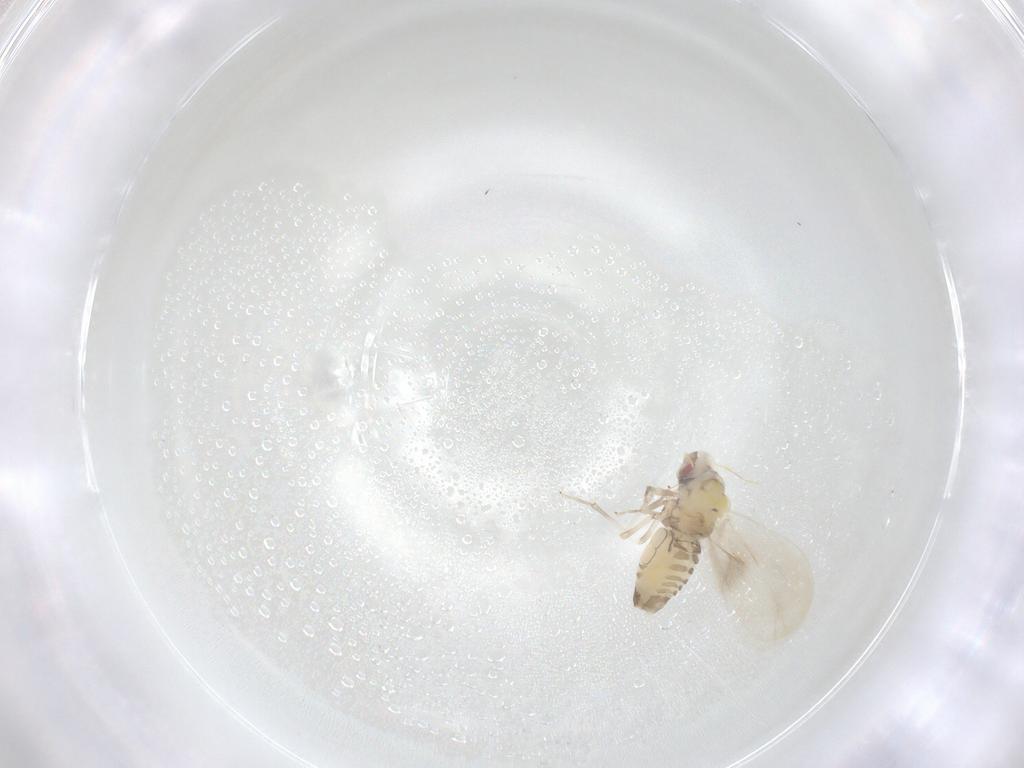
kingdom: Animalia
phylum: Arthropoda
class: Insecta
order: Hemiptera
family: Aleyrodidae
